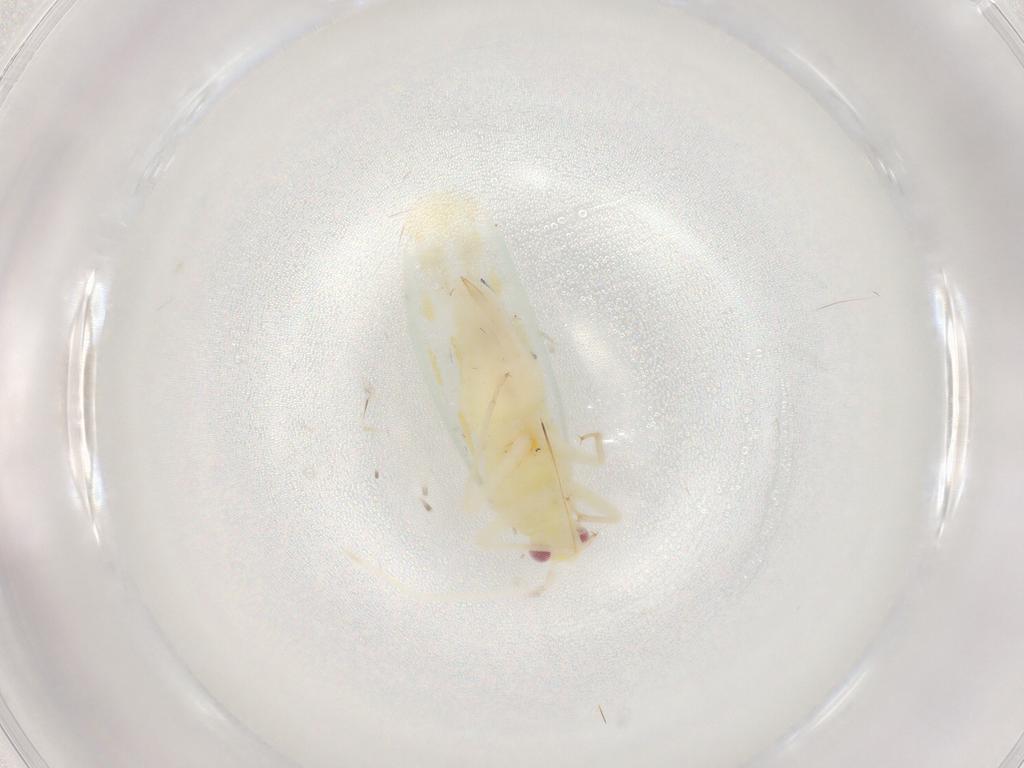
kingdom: Animalia
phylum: Arthropoda
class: Insecta
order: Hemiptera
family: Miridae
